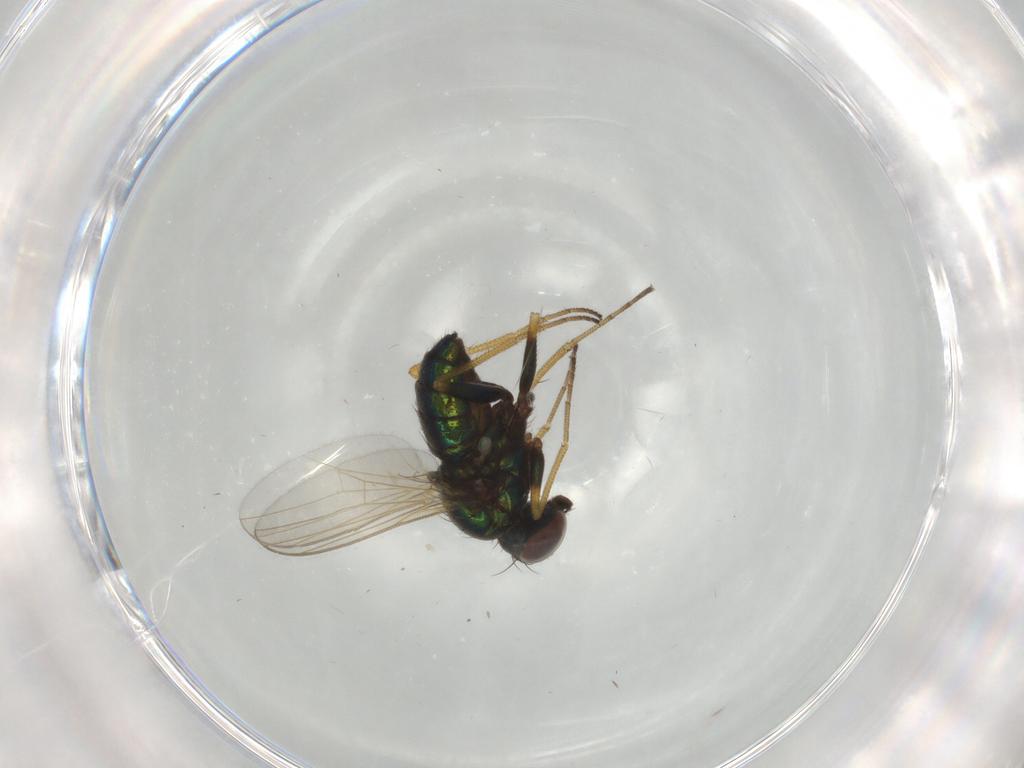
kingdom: Animalia
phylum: Arthropoda
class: Insecta
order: Diptera
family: Dolichopodidae
